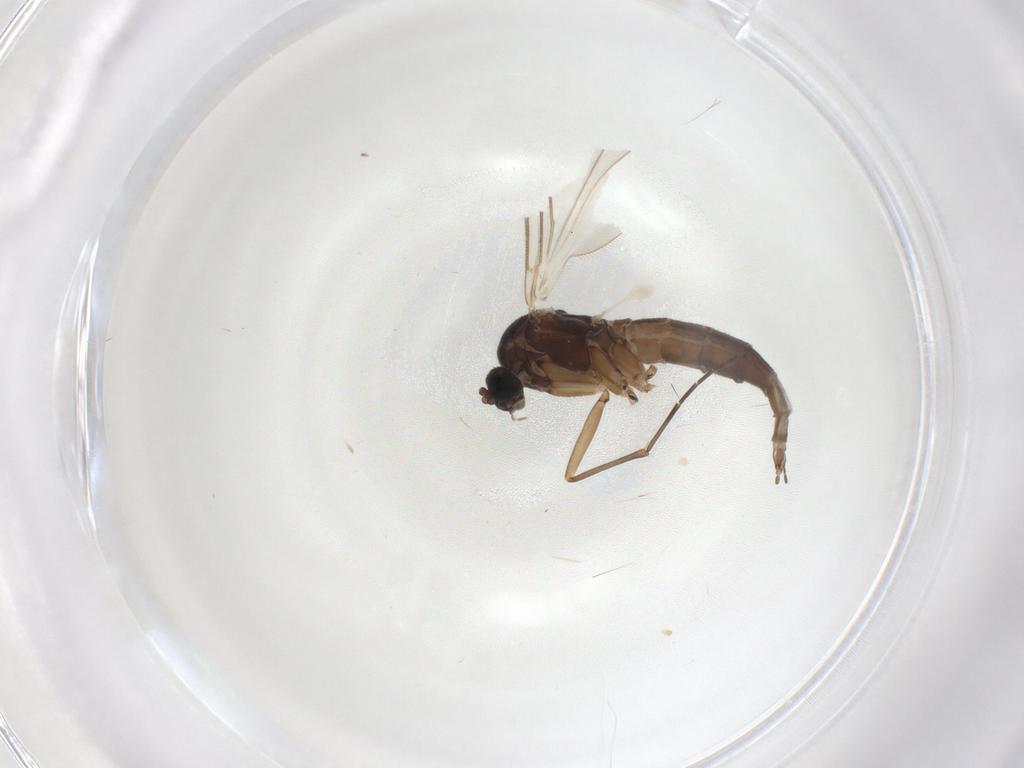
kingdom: Animalia
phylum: Arthropoda
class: Insecta
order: Diptera
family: Sciaridae
